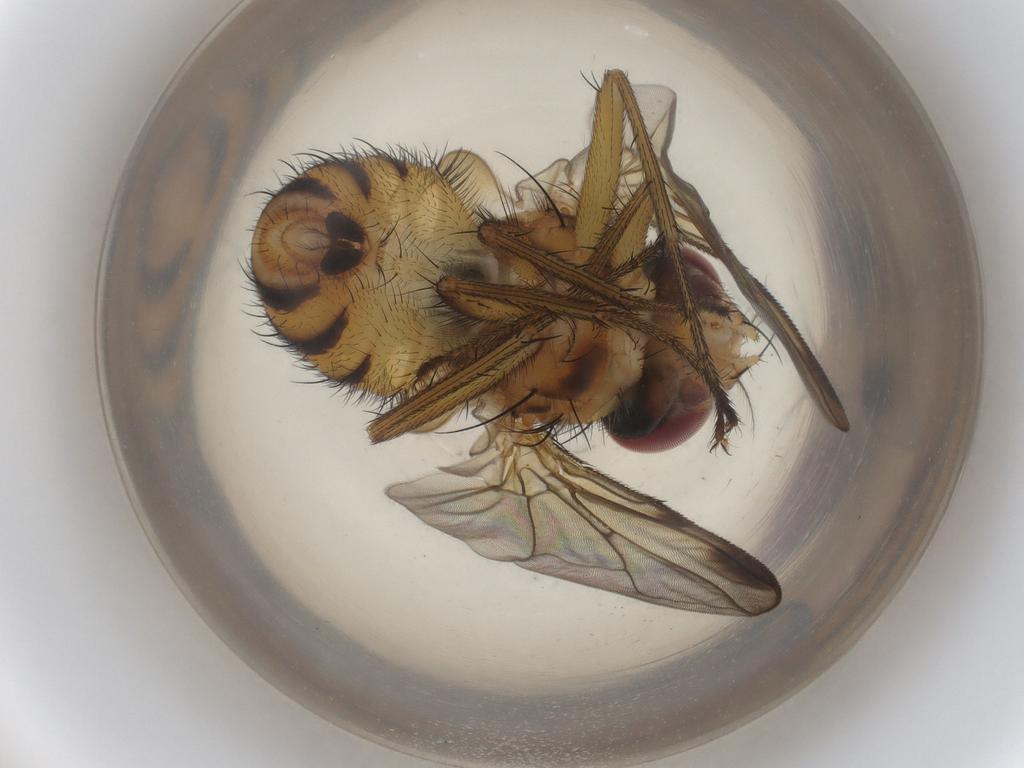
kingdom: Animalia
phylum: Arthropoda
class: Insecta
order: Diptera
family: Calliphoridae
